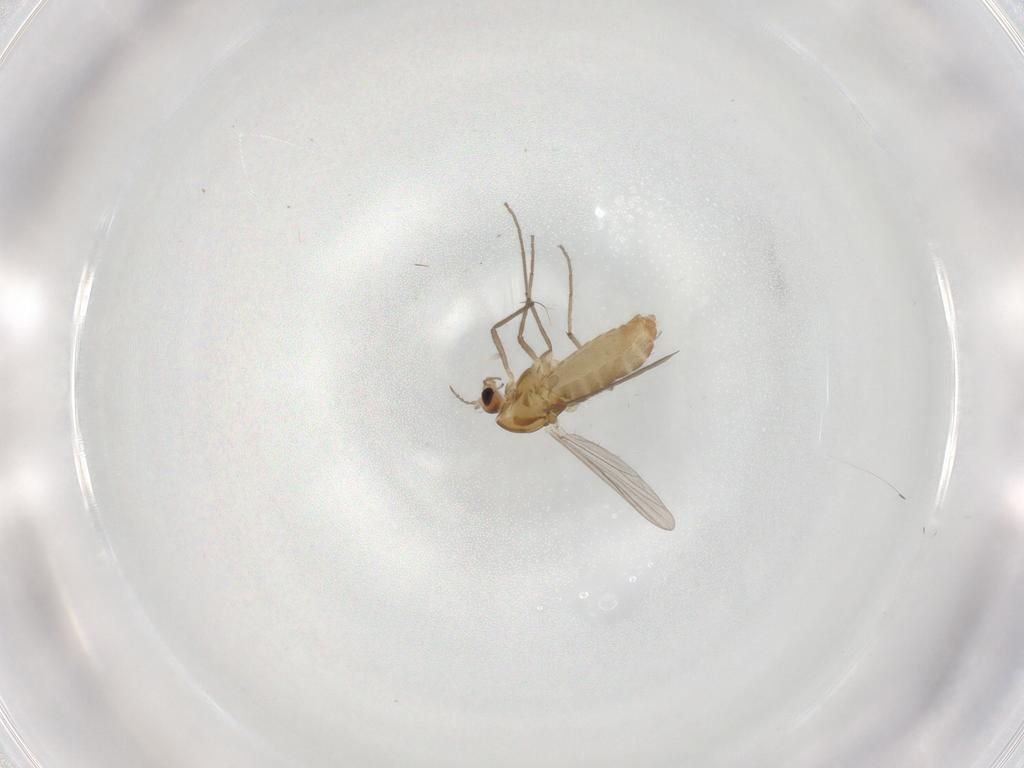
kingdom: Animalia
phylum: Arthropoda
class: Insecta
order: Diptera
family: Chironomidae
